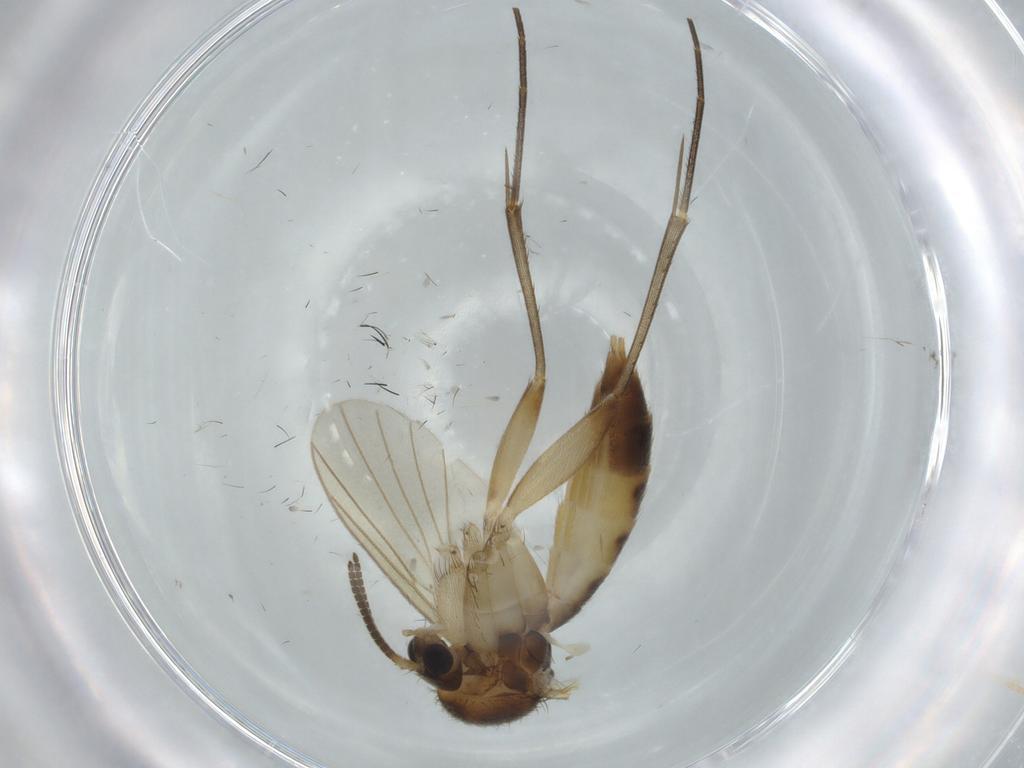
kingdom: Animalia
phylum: Arthropoda
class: Insecta
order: Diptera
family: Mycetophilidae
